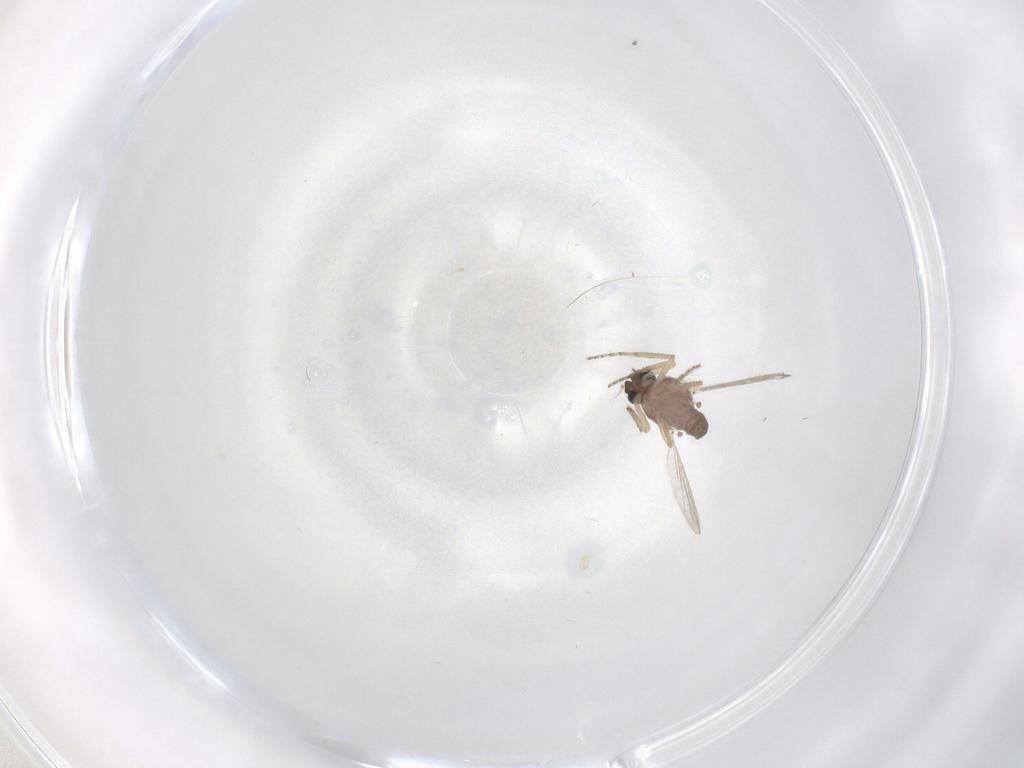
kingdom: Animalia
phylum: Arthropoda
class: Insecta
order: Diptera
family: Ceratopogonidae
